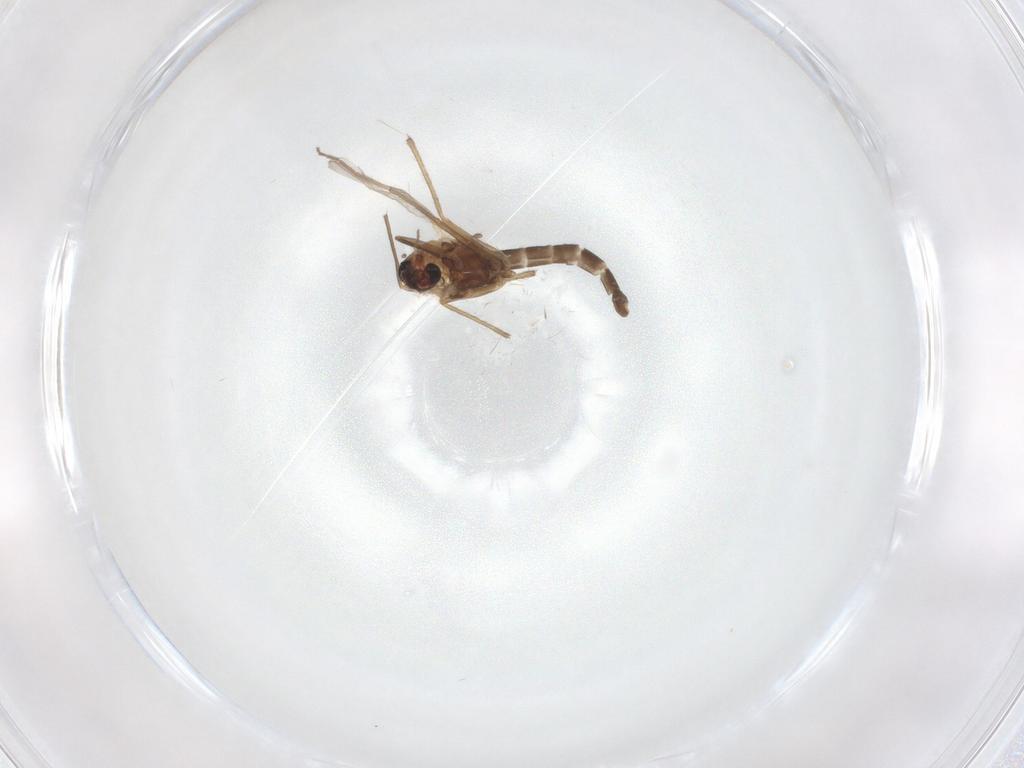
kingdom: Animalia
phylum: Arthropoda
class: Insecta
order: Diptera
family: Chironomidae
